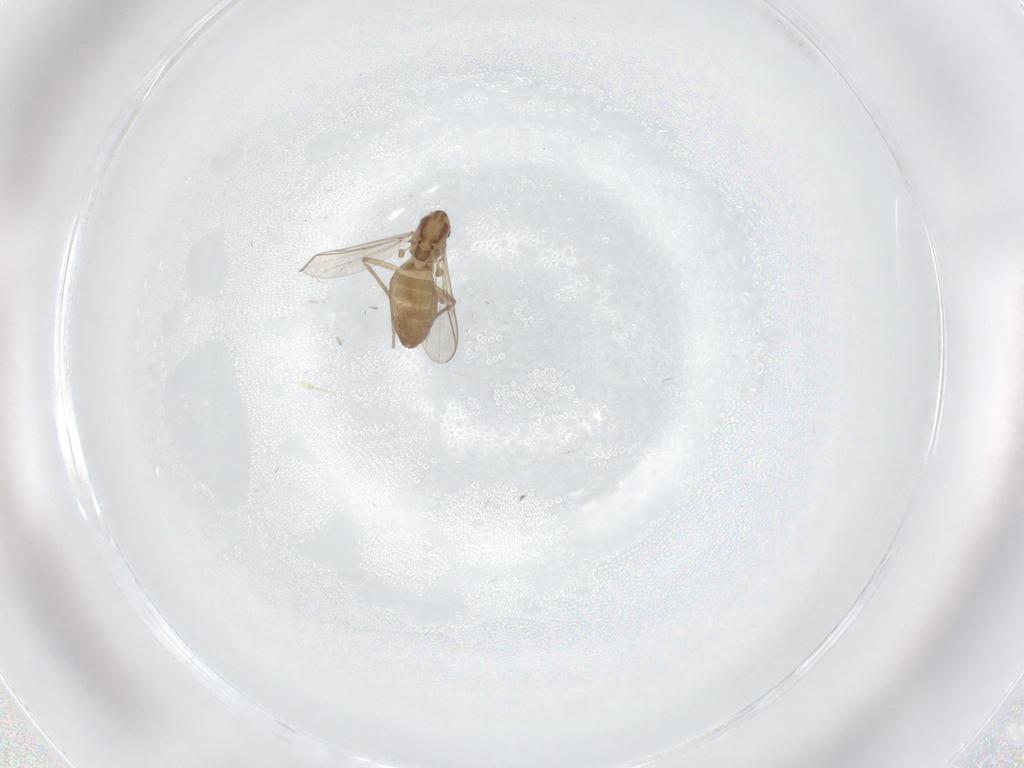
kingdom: Animalia
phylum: Arthropoda
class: Insecta
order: Diptera
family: Chironomidae
